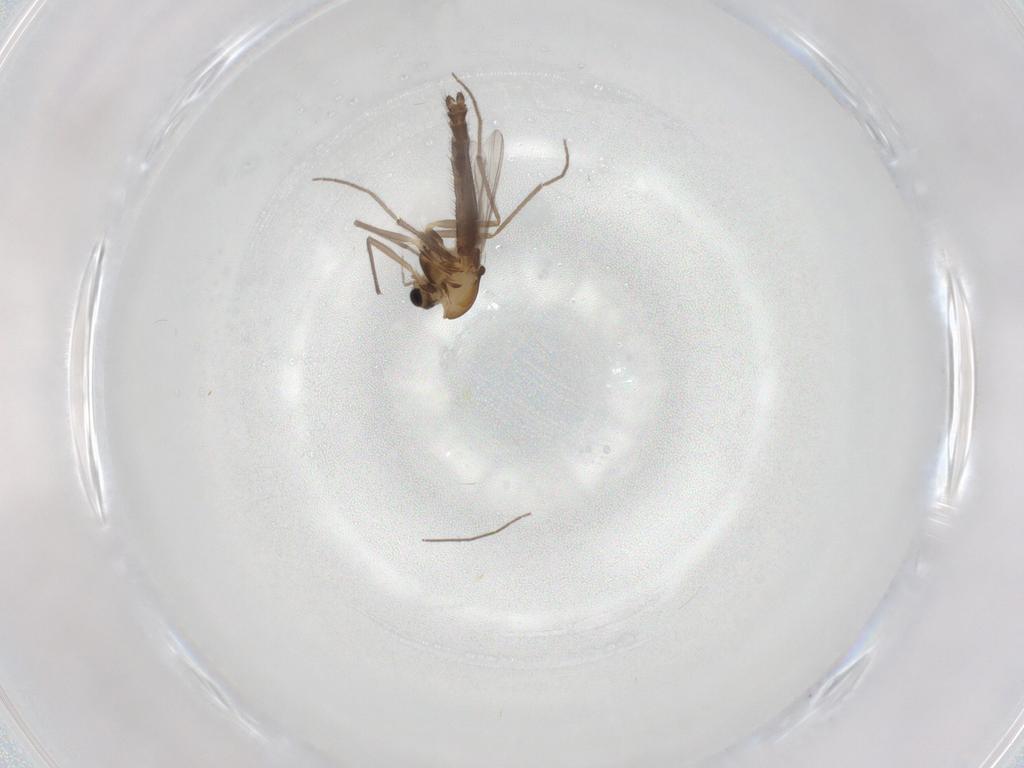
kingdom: Animalia
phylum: Arthropoda
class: Insecta
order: Diptera
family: Chironomidae
